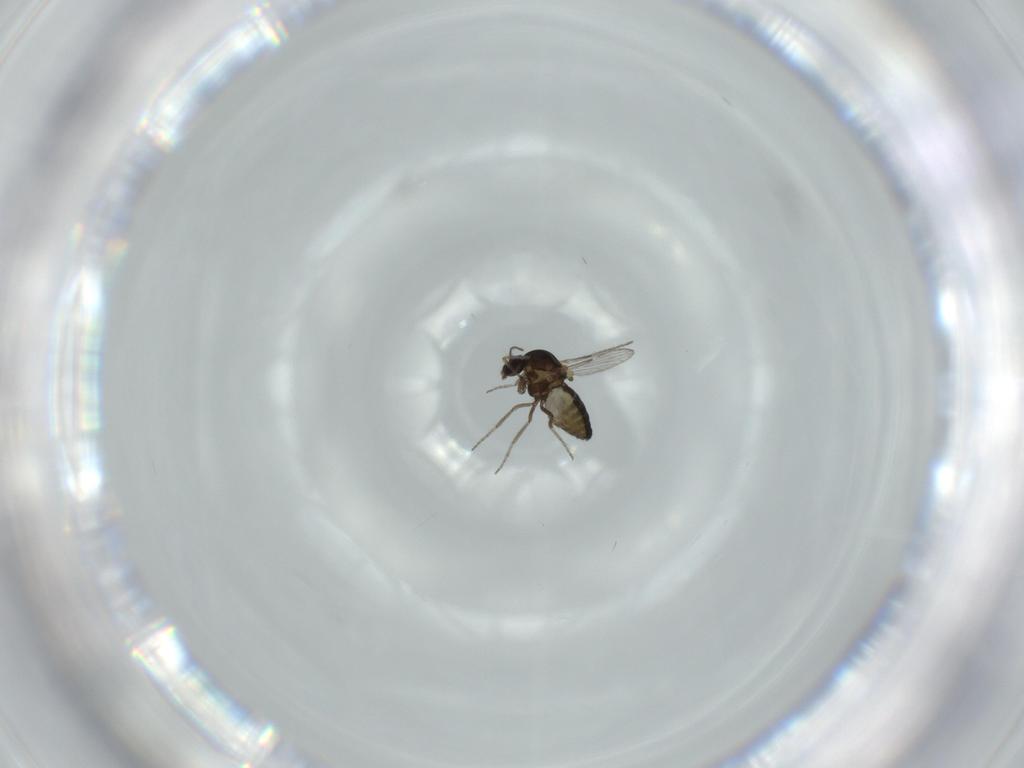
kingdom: Animalia
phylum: Arthropoda
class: Insecta
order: Diptera
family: Ceratopogonidae
